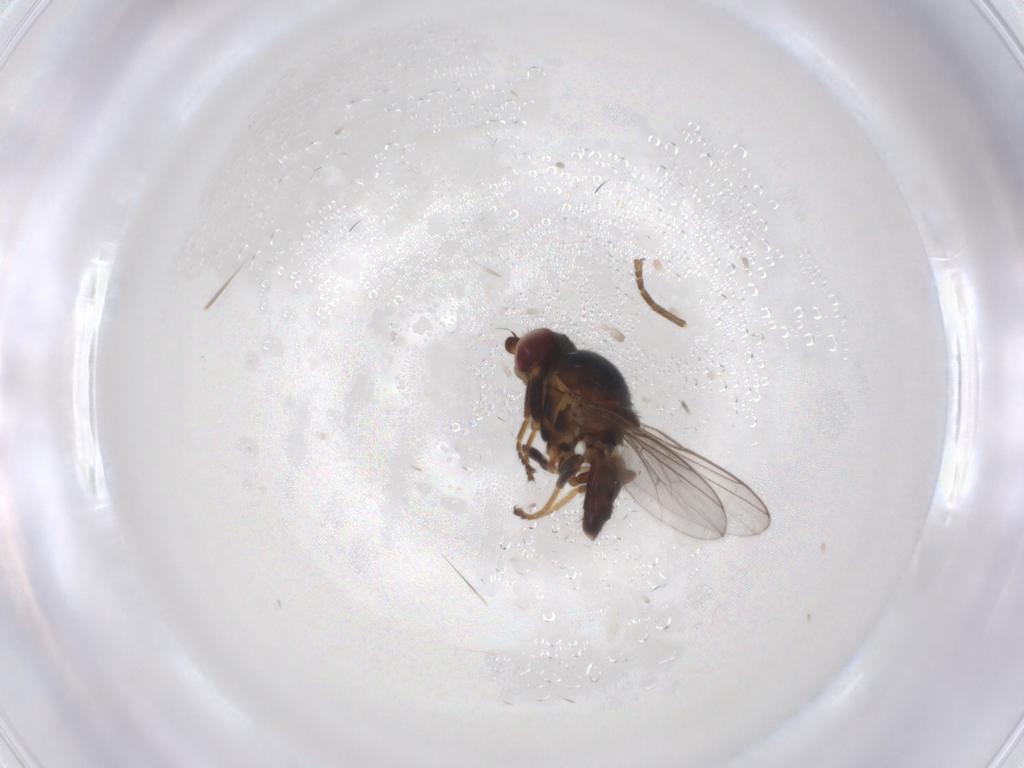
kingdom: Animalia
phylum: Arthropoda
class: Insecta
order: Diptera
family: Chloropidae
